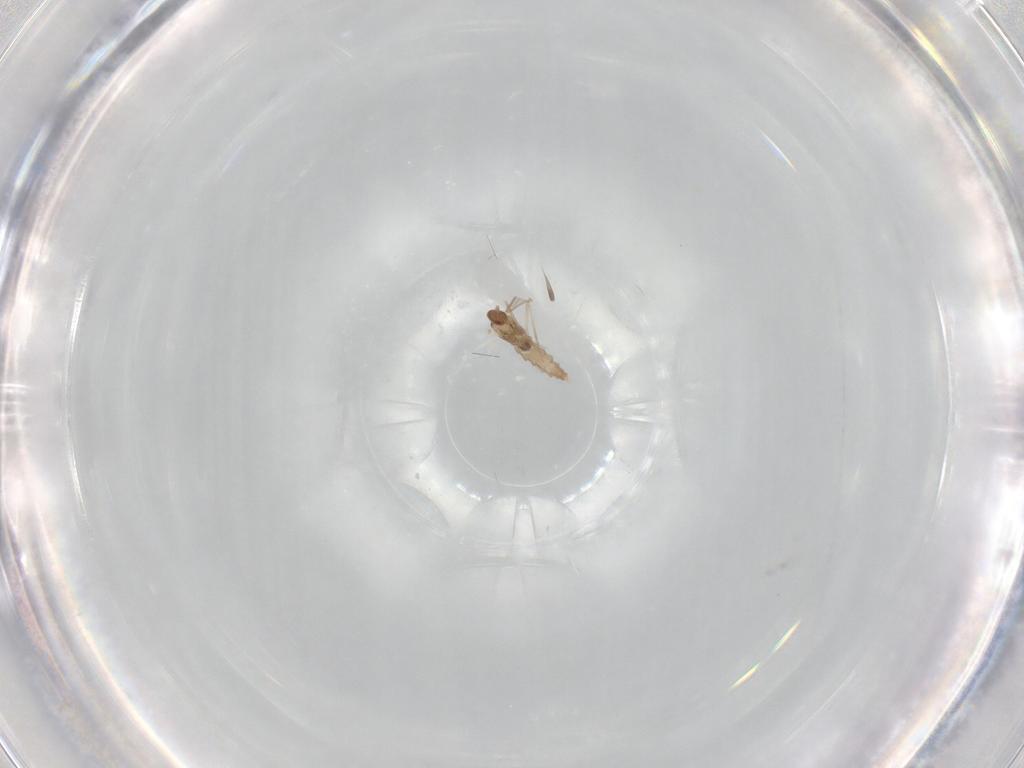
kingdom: Animalia
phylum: Arthropoda
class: Insecta
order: Diptera
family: Cecidomyiidae
